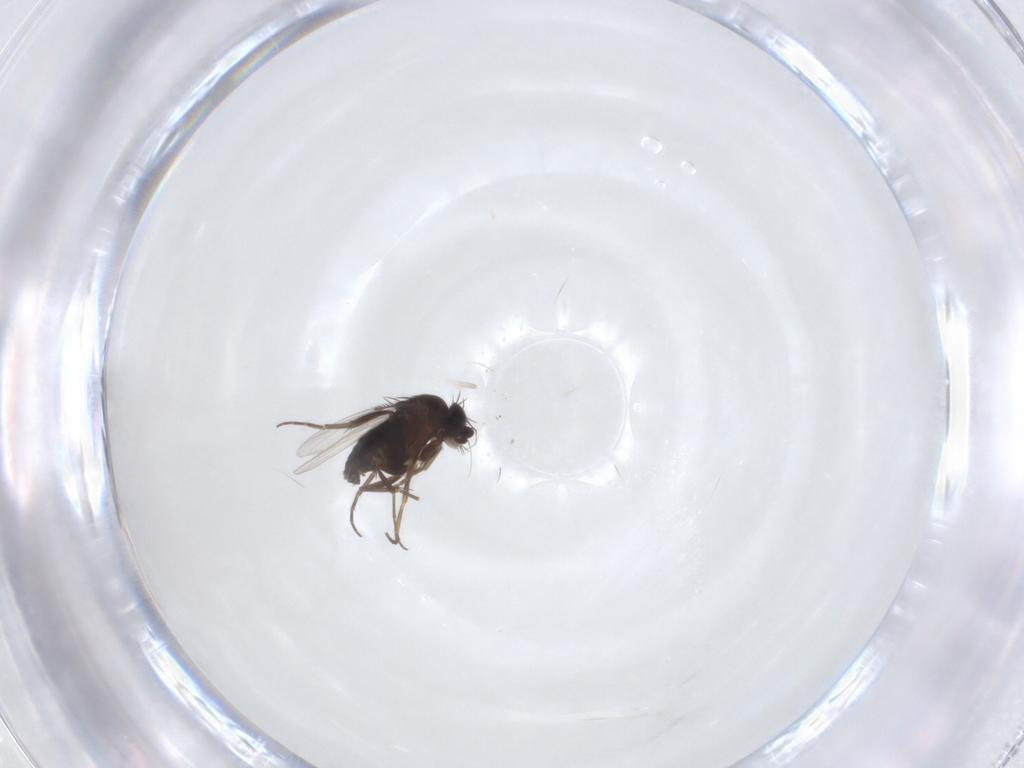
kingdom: Animalia
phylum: Arthropoda
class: Insecta
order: Diptera
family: Phoridae
